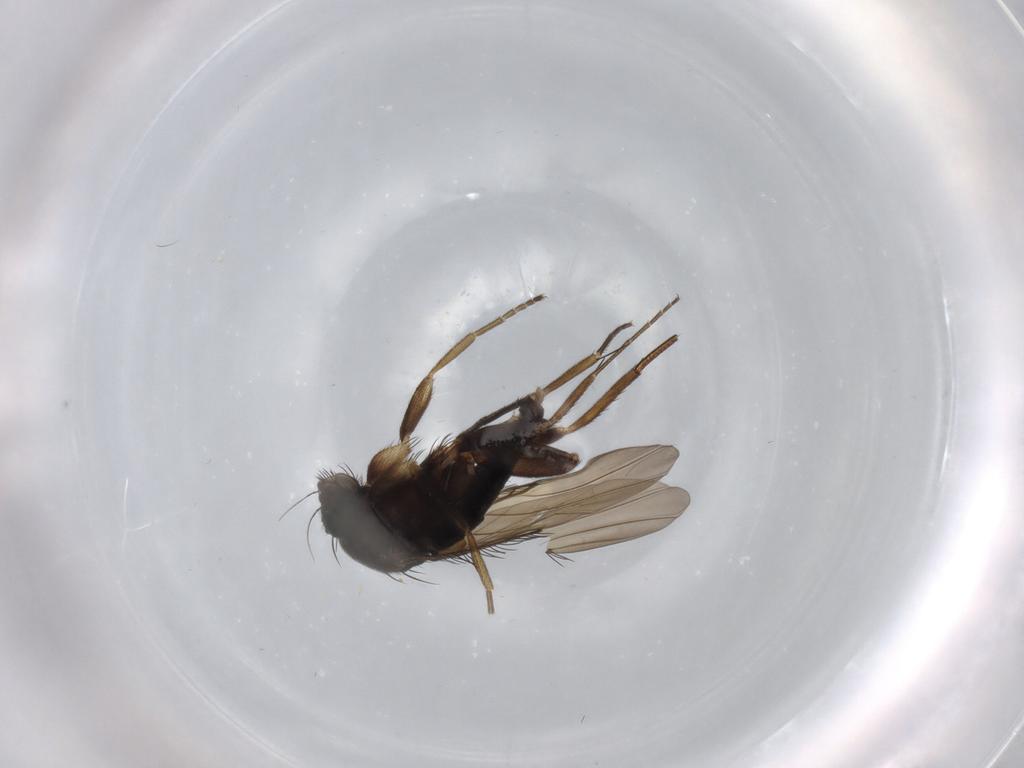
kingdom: Animalia
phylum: Arthropoda
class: Insecta
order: Diptera
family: Phoridae
